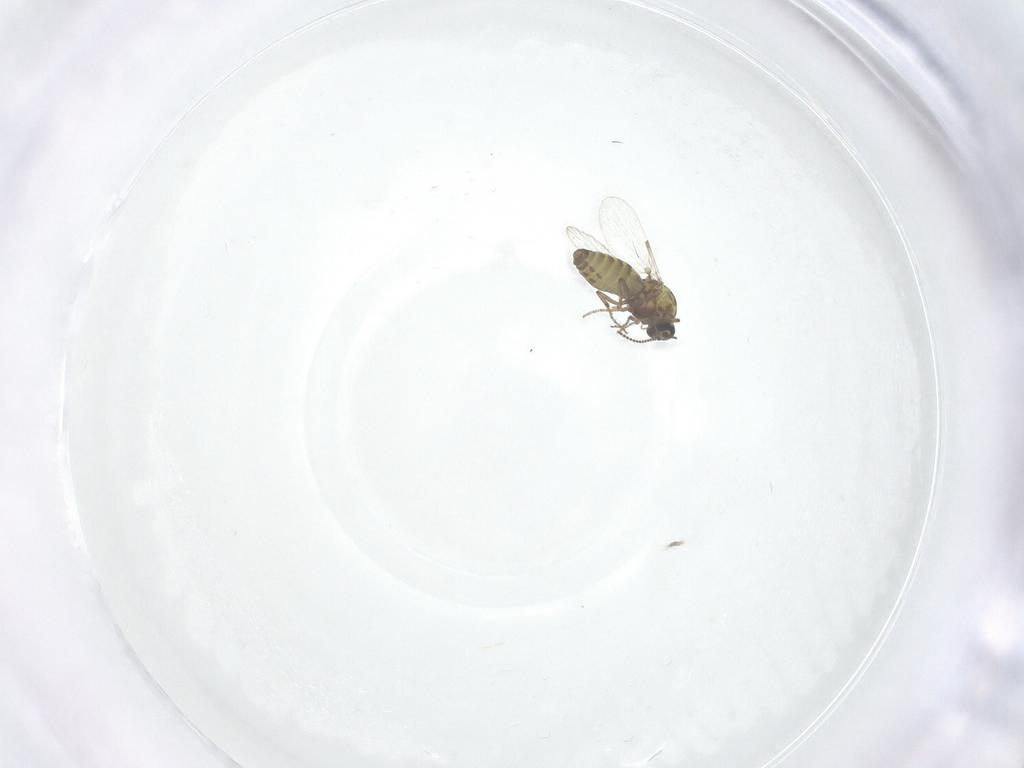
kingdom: Animalia
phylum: Arthropoda
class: Insecta
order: Diptera
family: Ceratopogonidae
